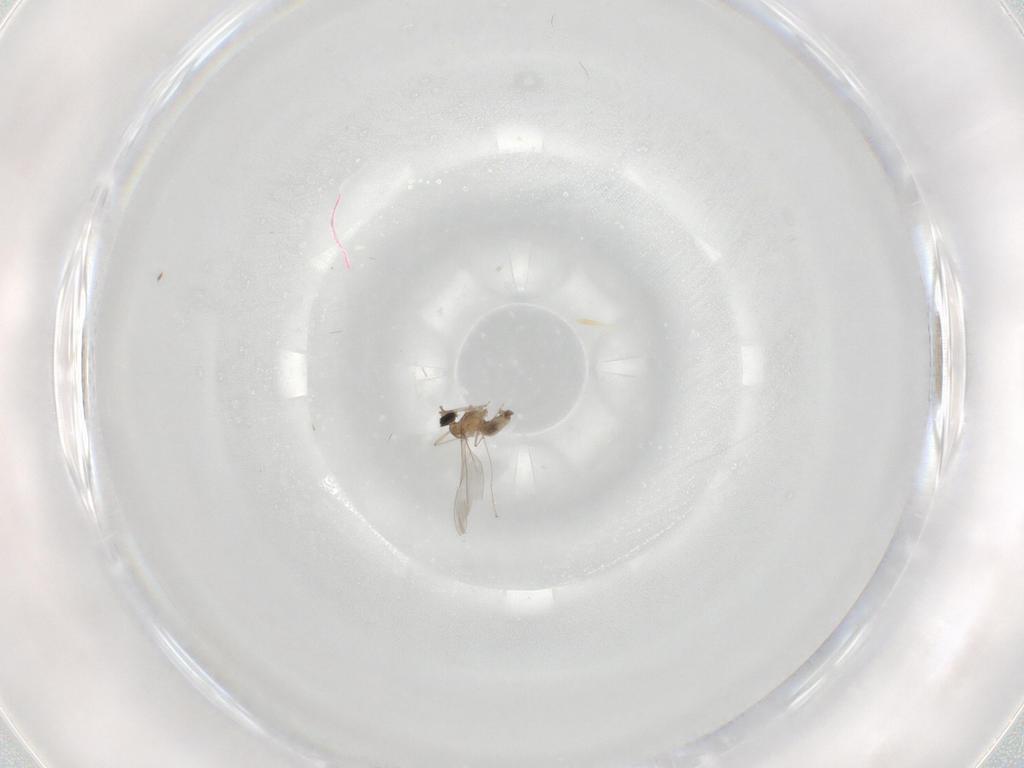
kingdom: Animalia
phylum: Arthropoda
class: Insecta
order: Diptera
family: Cecidomyiidae
